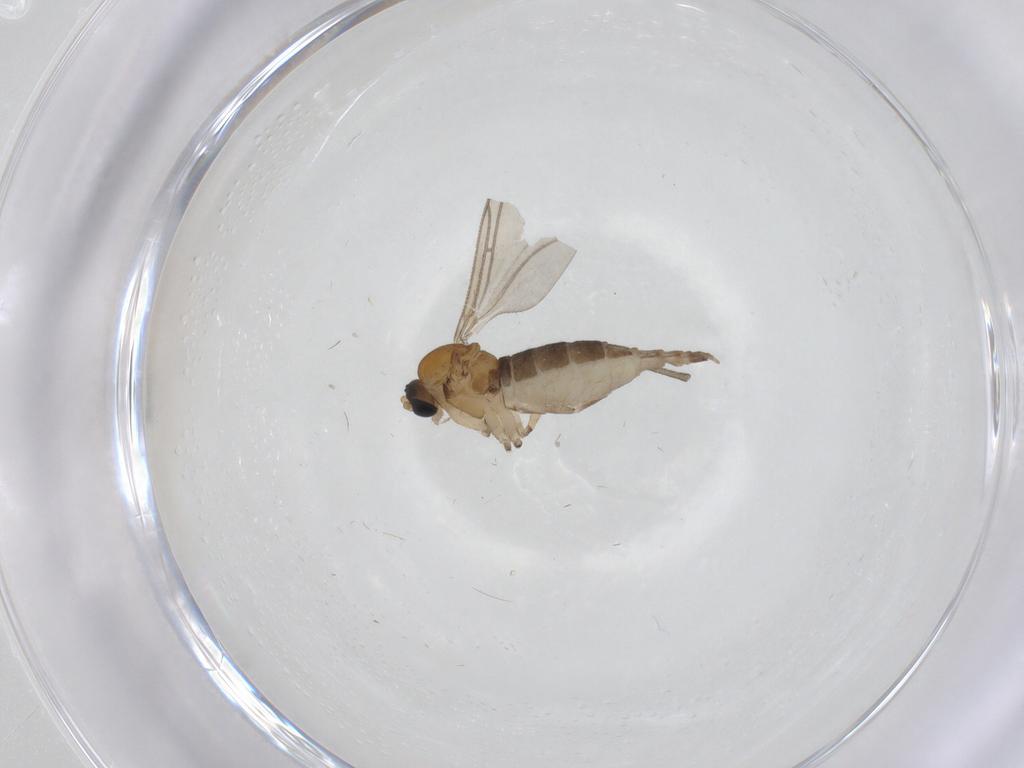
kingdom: Animalia
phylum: Arthropoda
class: Insecta
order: Diptera
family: Sciaridae
